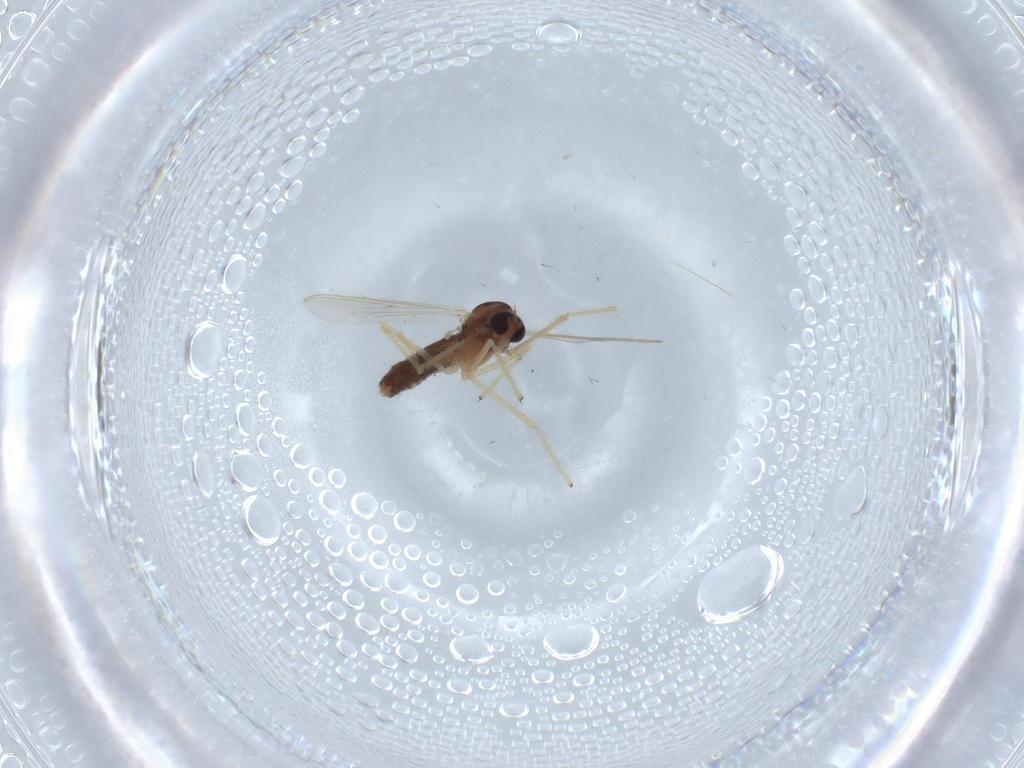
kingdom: Animalia
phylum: Arthropoda
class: Insecta
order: Diptera
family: Chironomidae
